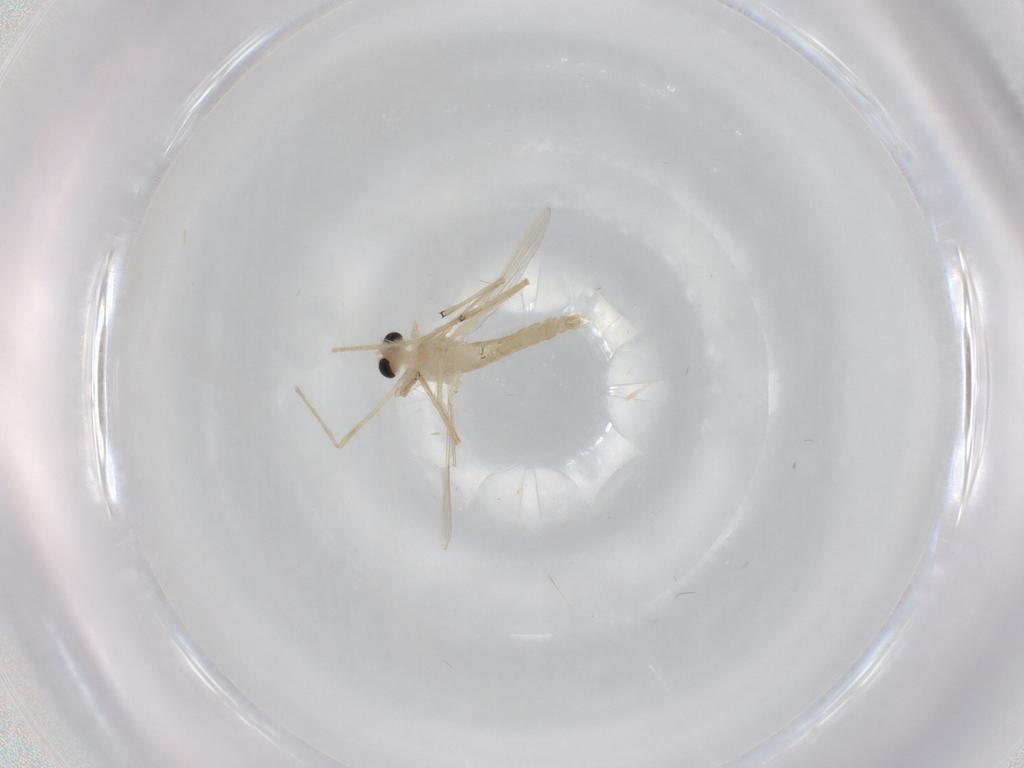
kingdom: Animalia
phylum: Arthropoda
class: Insecta
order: Diptera
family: Chironomidae
